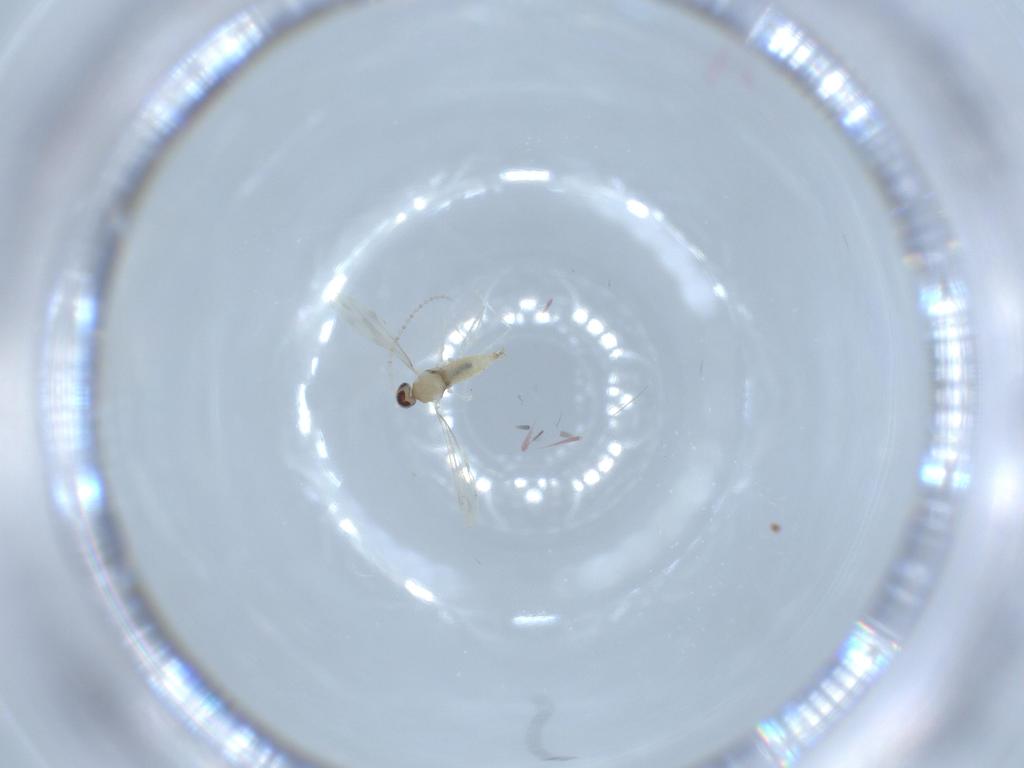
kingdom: Animalia
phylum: Arthropoda
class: Insecta
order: Diptera
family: Cecidomyiidae
